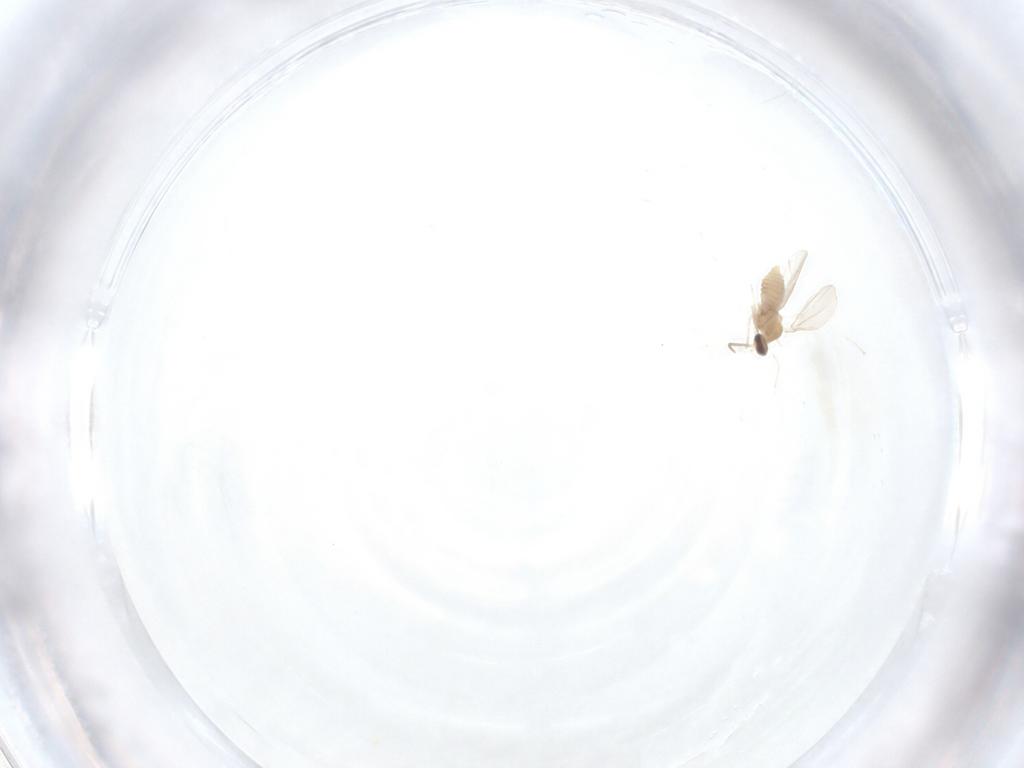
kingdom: Animalia
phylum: Arthropoda
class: Insecta
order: Diptera
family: Cecidomyiidae
